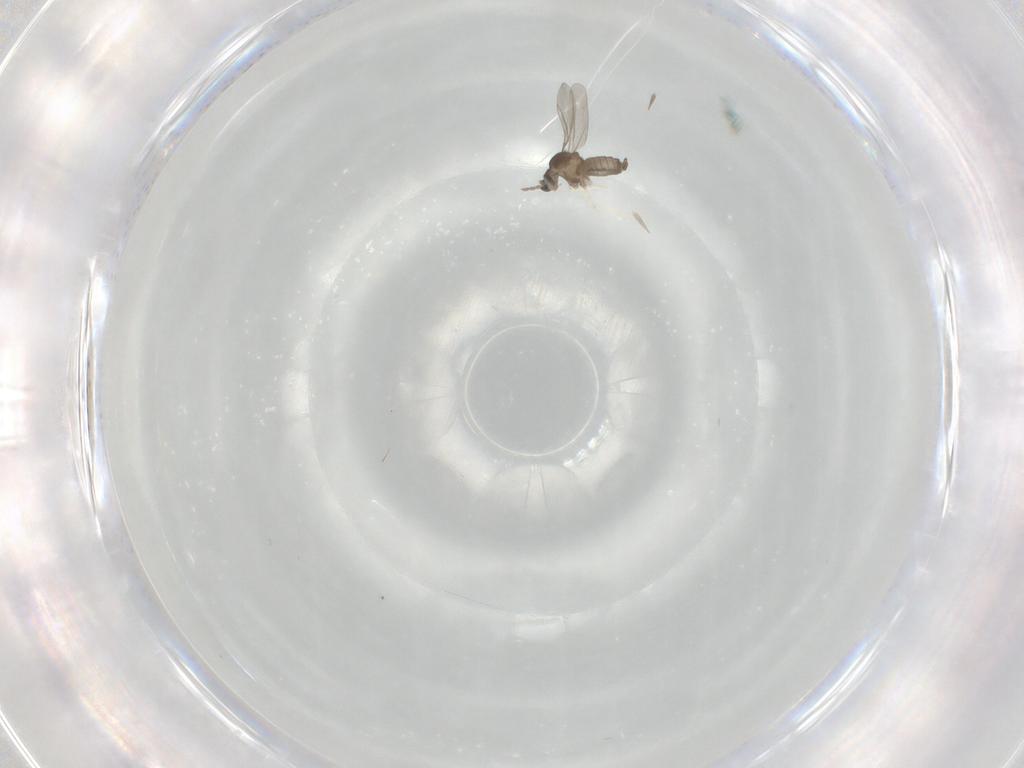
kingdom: Animalia
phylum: Arthropoda
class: Insecta
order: Diptera
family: Cecidomyiidae
